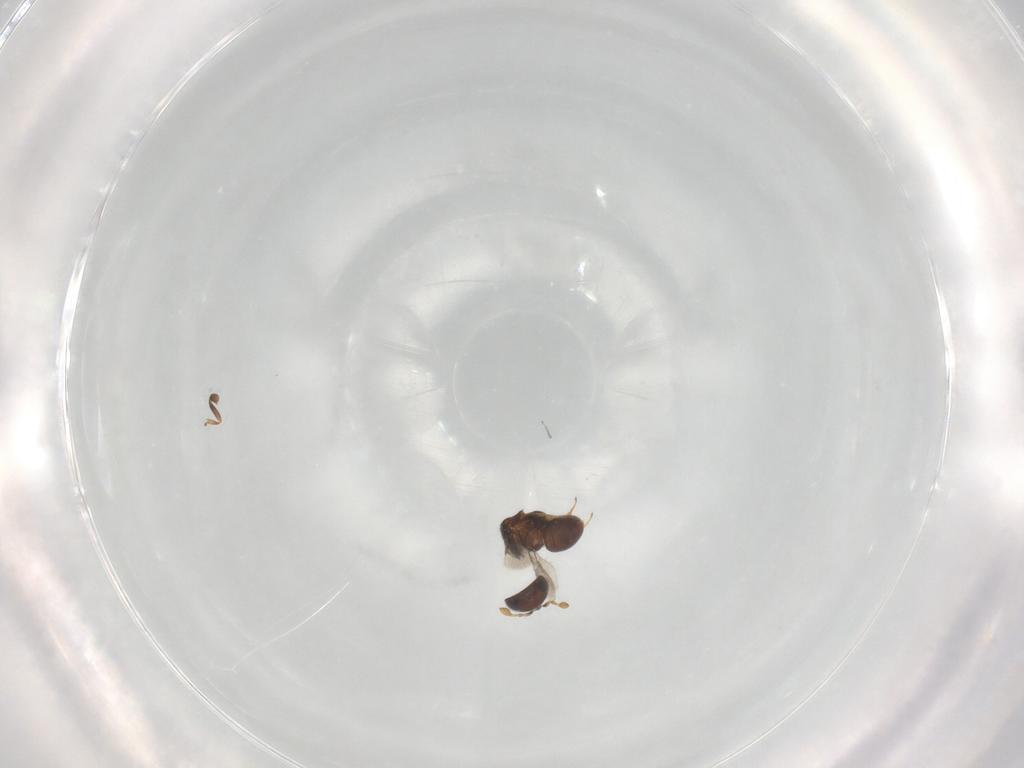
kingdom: Animalia
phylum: Arthropoda
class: Insecta
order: Hymenoptera
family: Scelionidae
